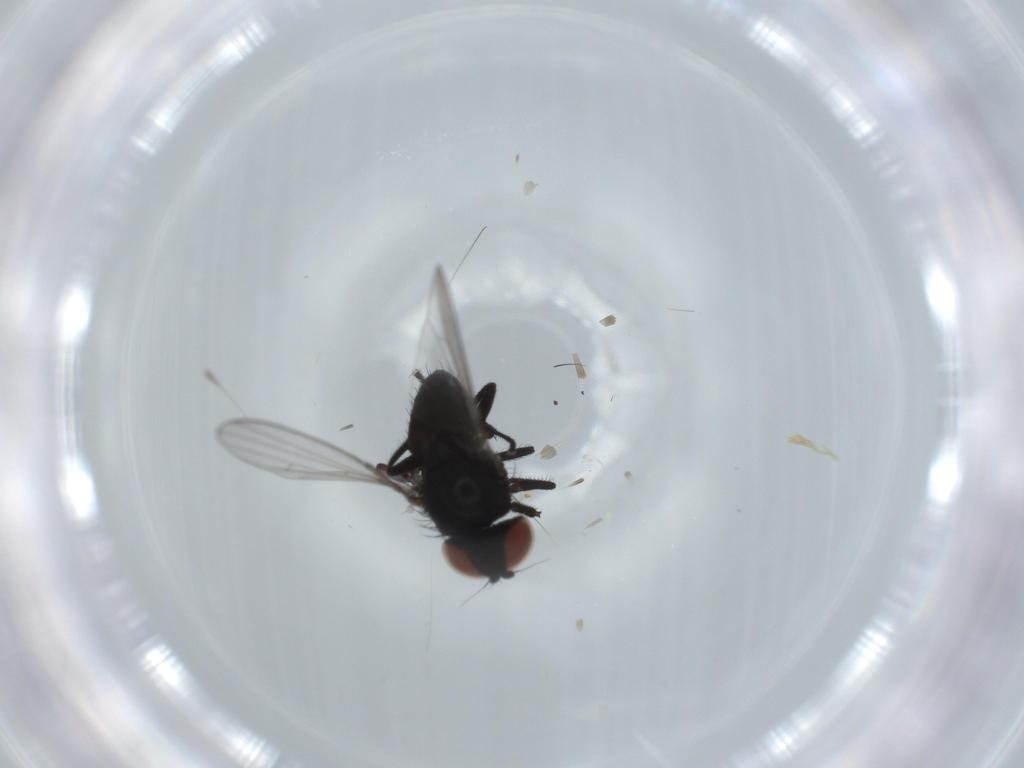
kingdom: Animalia
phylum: Arthropoda
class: Insecta
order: Diptera
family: Milichiidae
